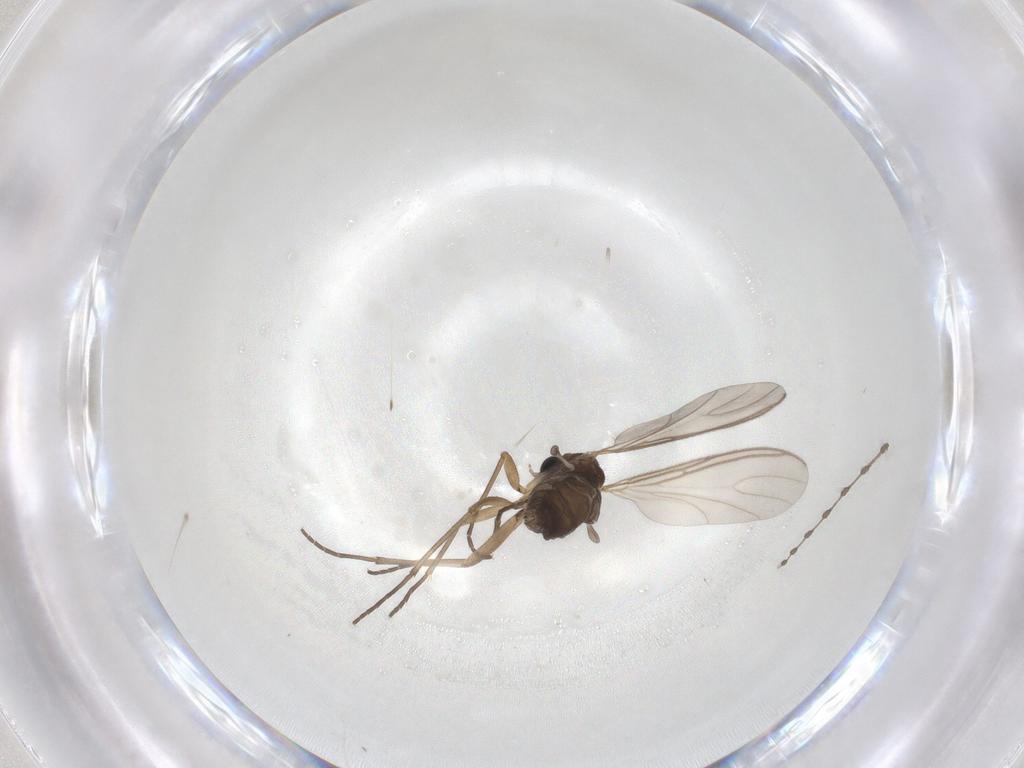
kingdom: Animalia
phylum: Arthropoda
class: Insecta
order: Diptera
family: Sciaridae
